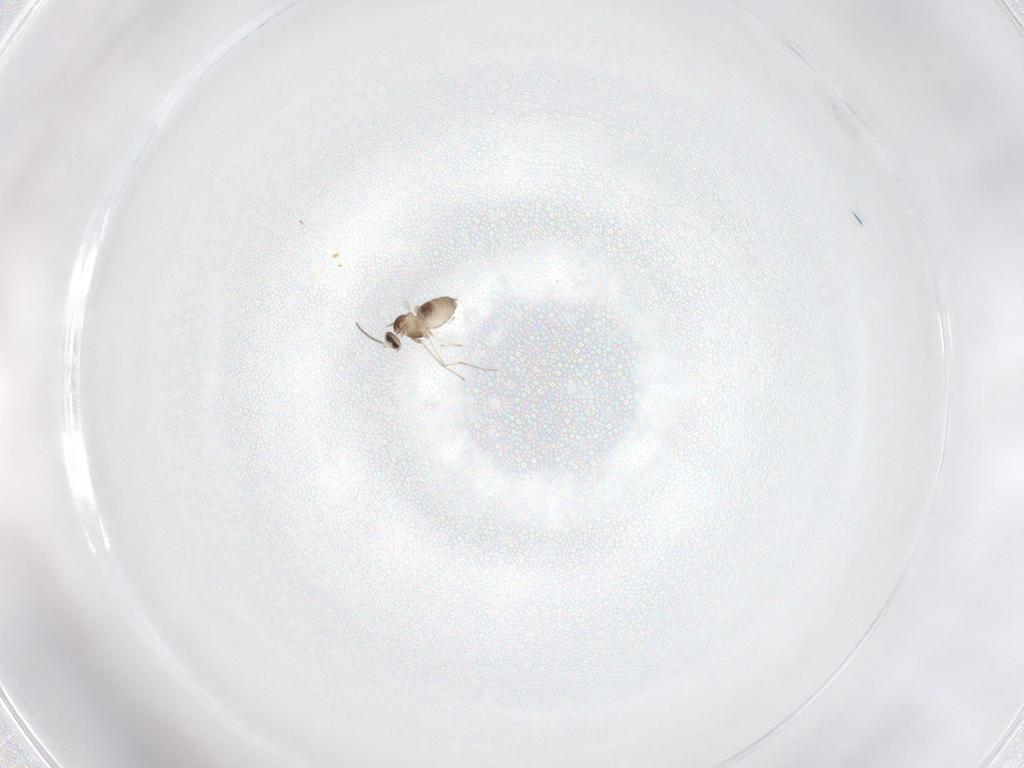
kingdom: Animalia
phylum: Arthropoda
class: Insecta
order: Diptera
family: Cecidomyiidae
